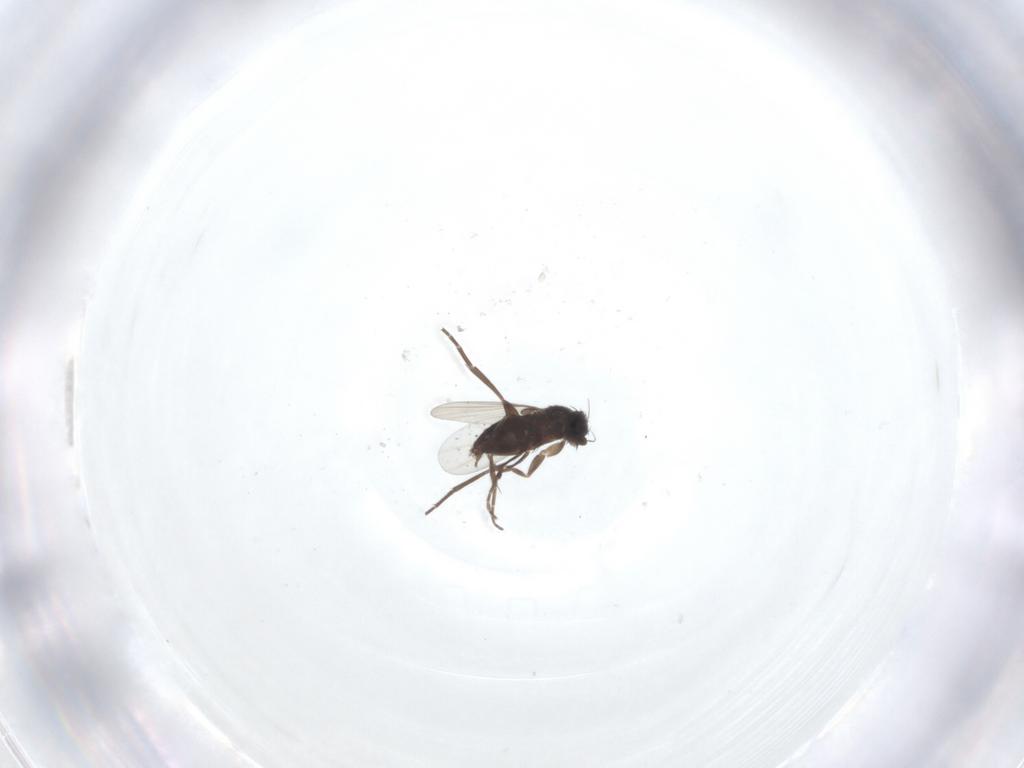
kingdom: Animalia
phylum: Arthropoda
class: Insecta
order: Diptera
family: Phoridae
